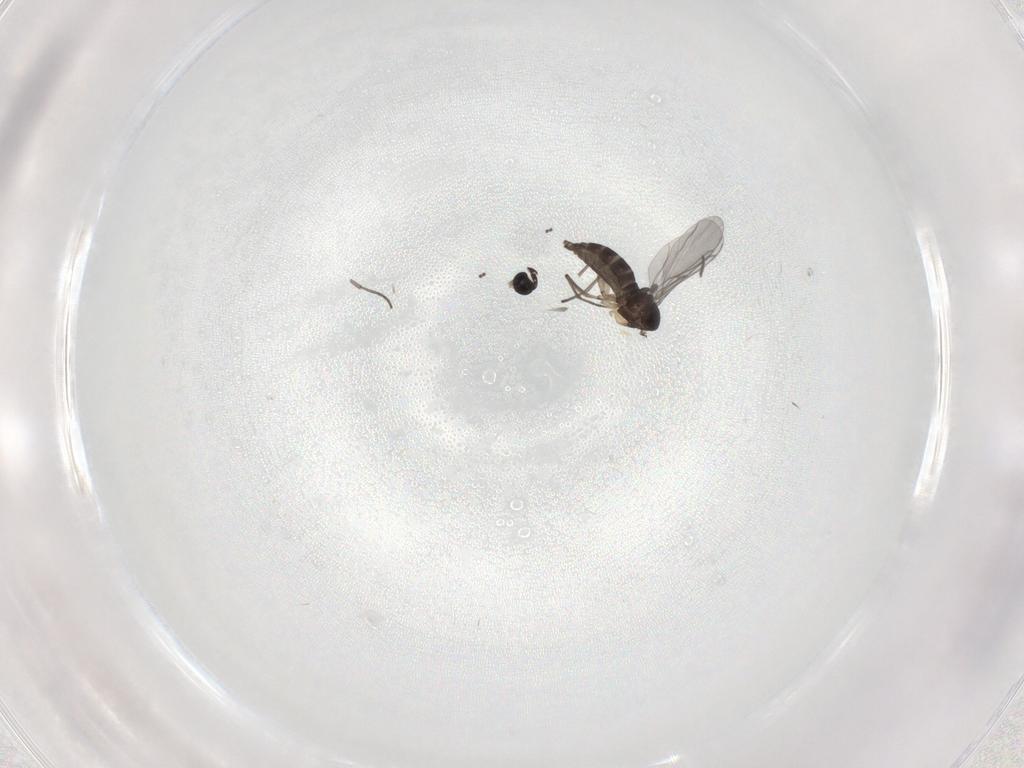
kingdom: Animalia
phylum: Arthropoda
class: Insecta
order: Diptera
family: Sciaridae
